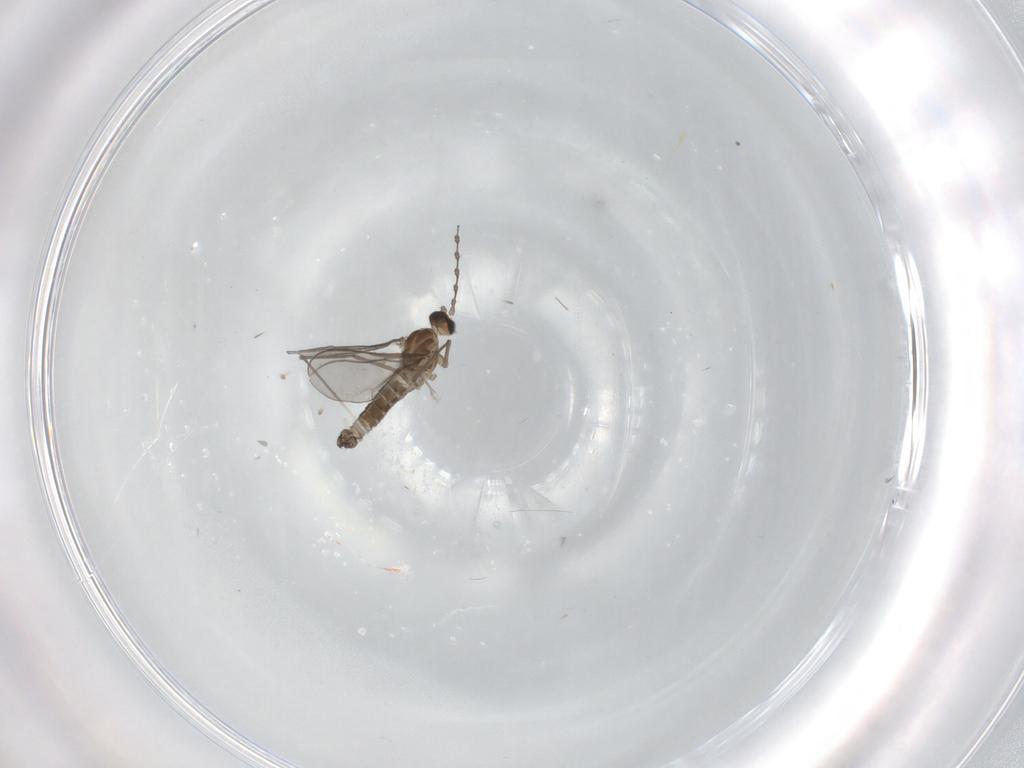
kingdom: Animalia
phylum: Arthropoda
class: Insecta
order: Diptera
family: Cecidomyiidae
